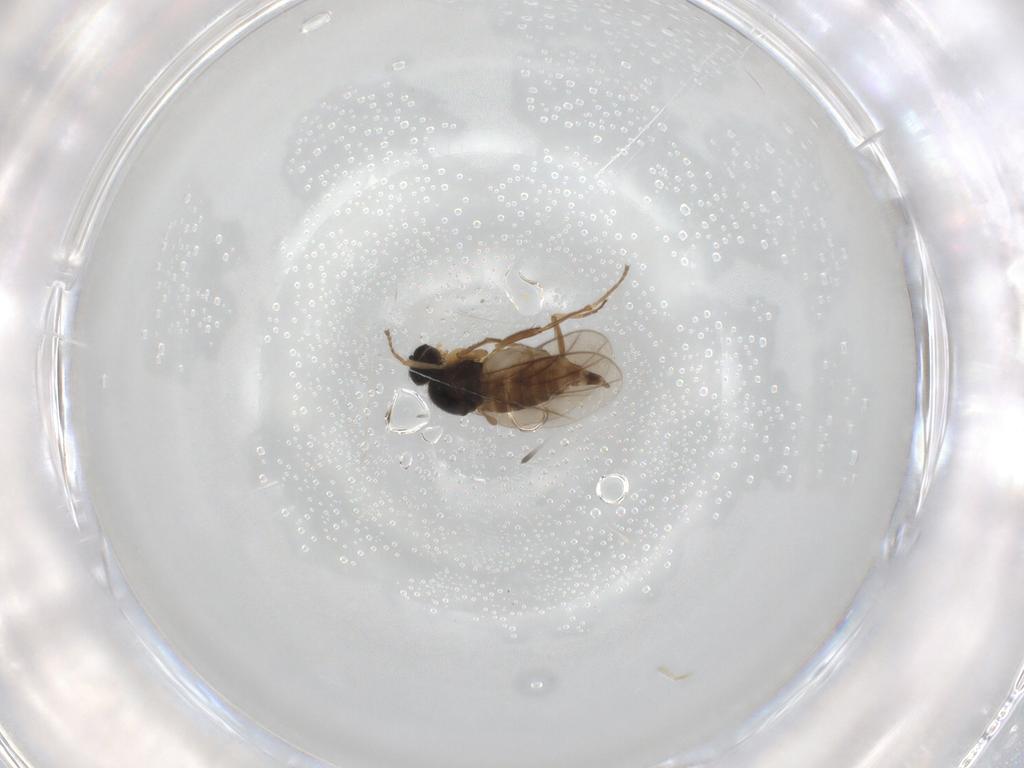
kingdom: Animalia
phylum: Arthropoda
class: Insecta
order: Diptera
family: Hybotidae
